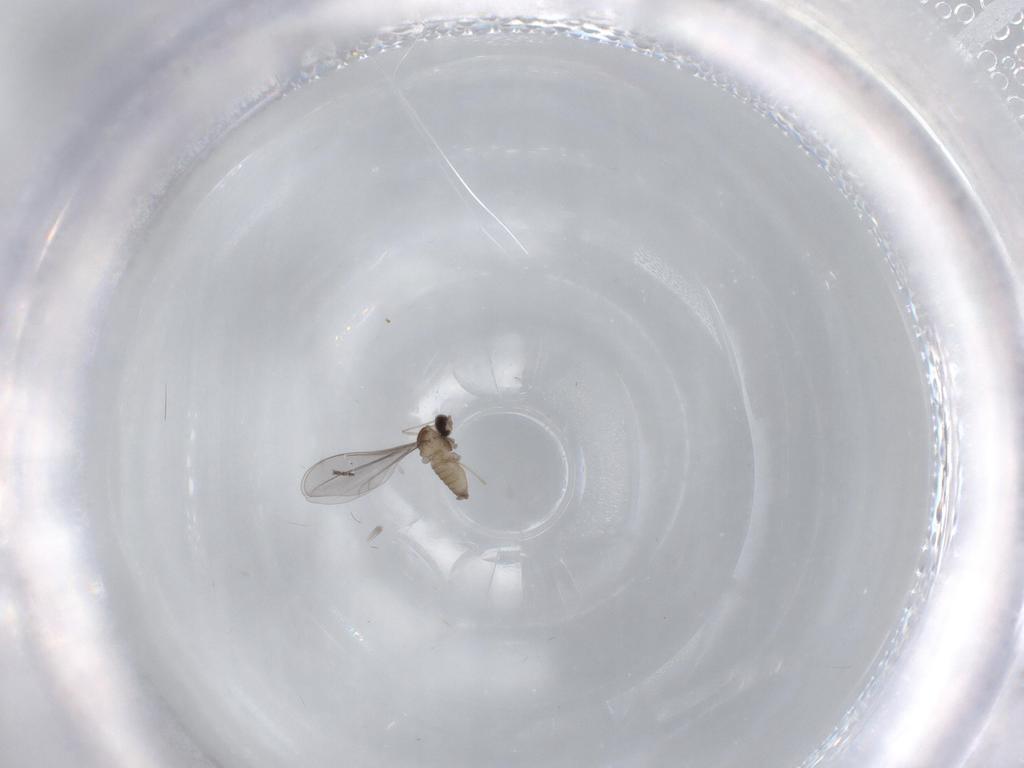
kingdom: Animalia
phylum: Arthropoda
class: Insecta
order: Diptera
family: Cecidomyiidae
